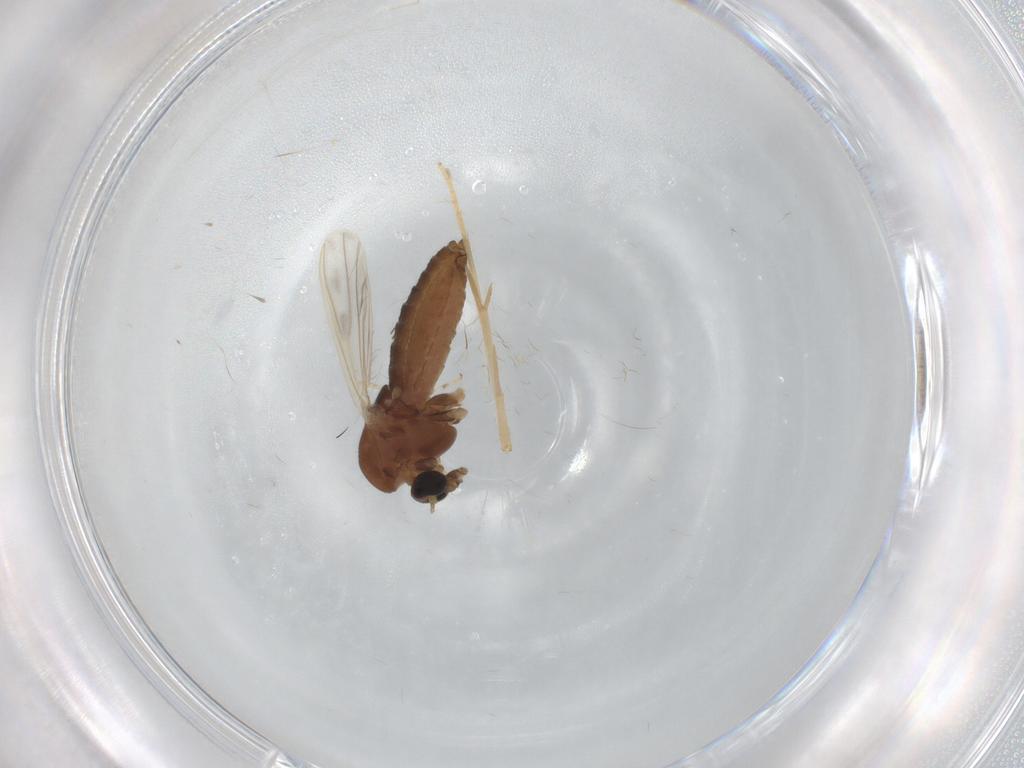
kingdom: Animalia
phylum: Arthropoda
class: Insecta
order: Diptera
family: Chironomidae
